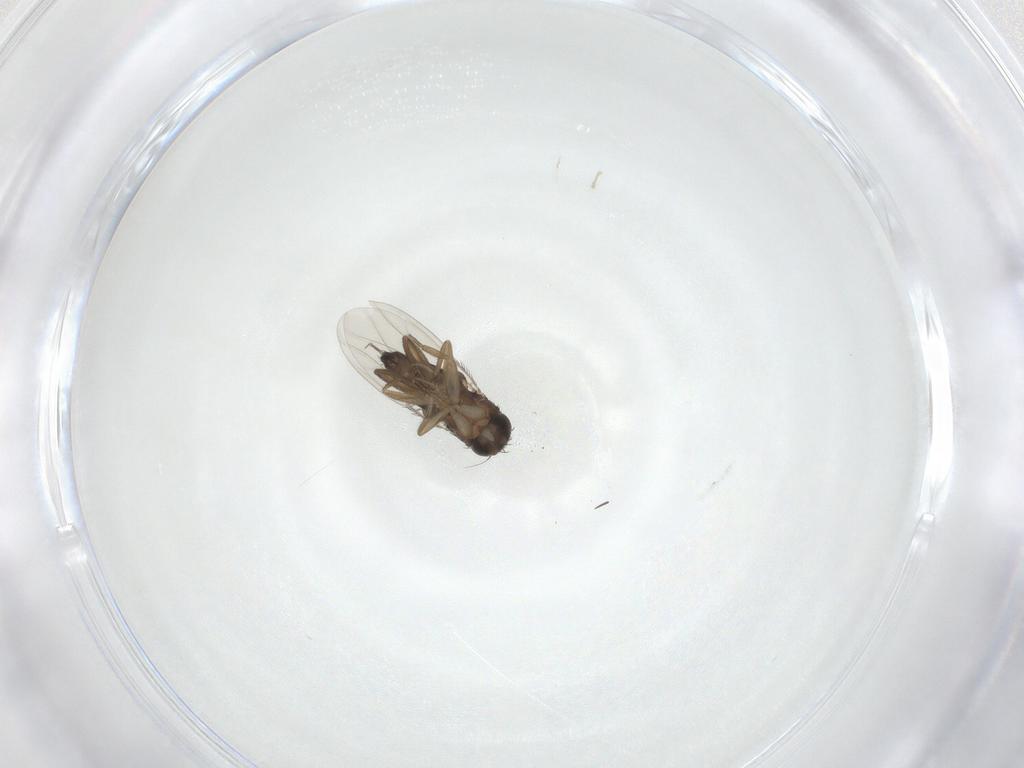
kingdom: Animalia
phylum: Arthropoda
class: Insecta
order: Diptera
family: Phoridae
